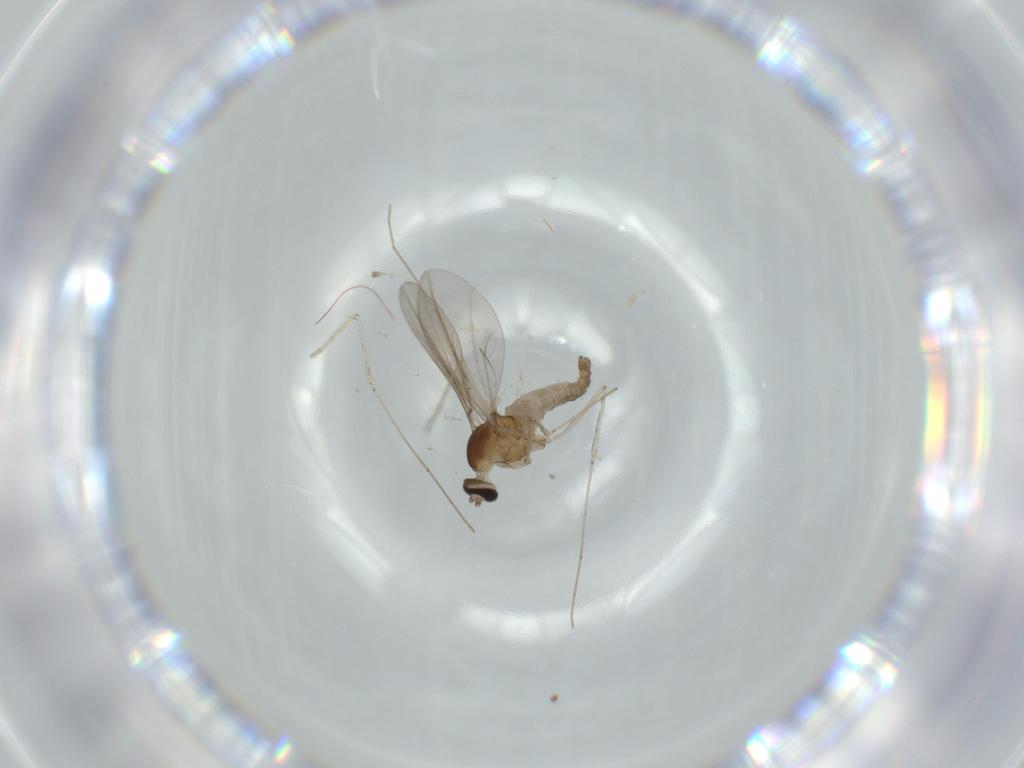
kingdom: Animalia
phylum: Arthropoda
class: Insecta
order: Diptera
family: Cecidomyiidae
